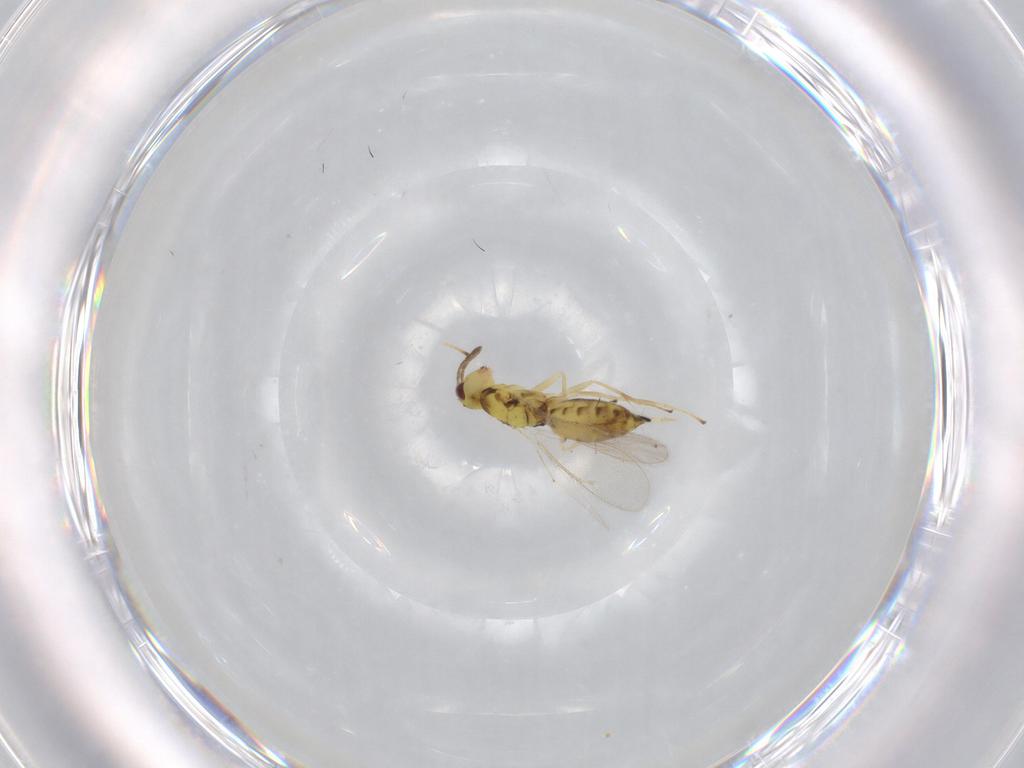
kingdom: Animalia
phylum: Arthropoda
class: Insecta
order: Hymenoptera
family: Eulophidae
